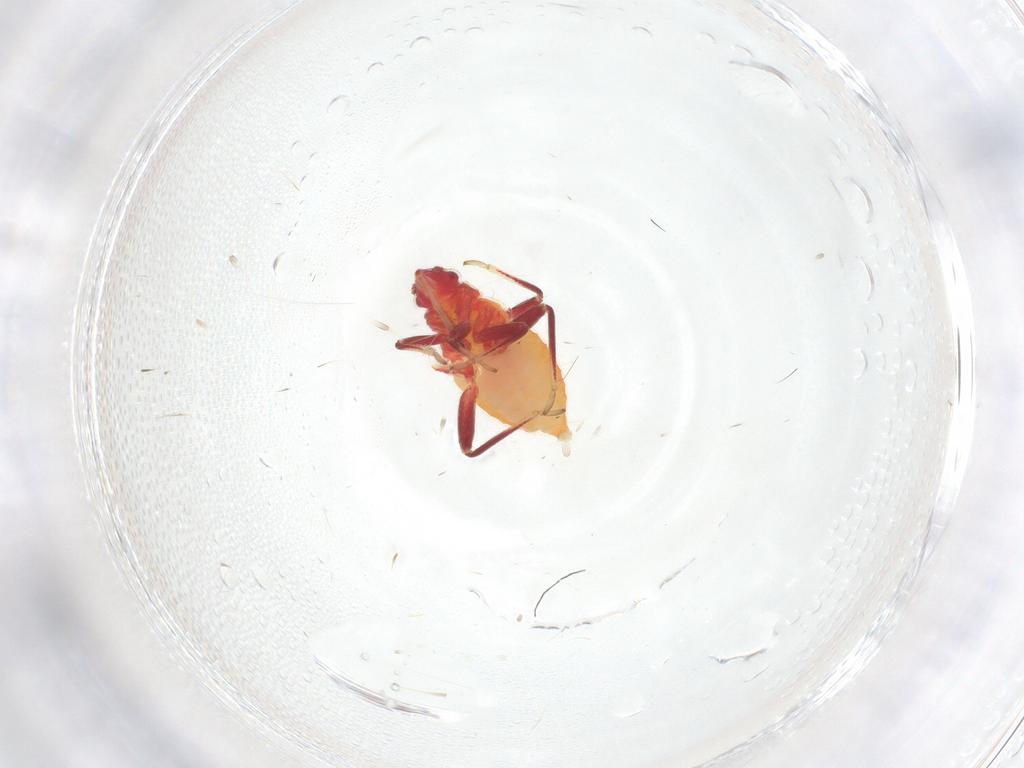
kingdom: Animalia
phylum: Arthropoda
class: Insecta
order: Hemiptera
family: Miridae
